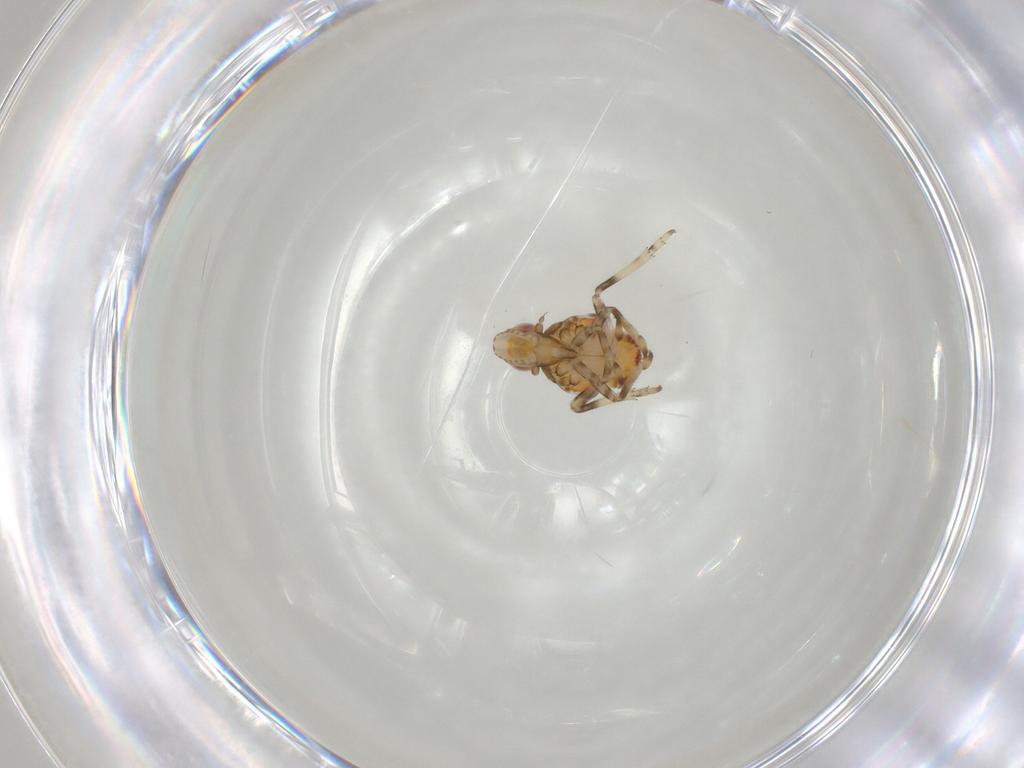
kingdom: Animalia
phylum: Arthropoda
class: Insecta
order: Hemiptera
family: Tropiduchidae
